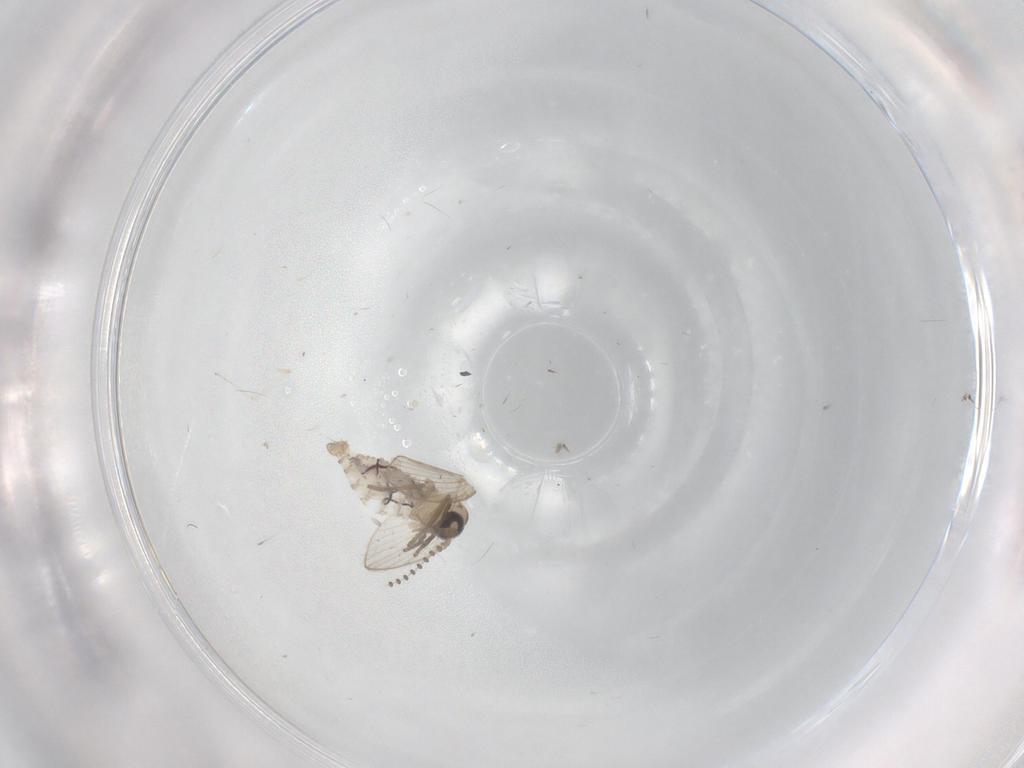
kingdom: Animalia
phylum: Arthropoda
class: Insecta
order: Diptera
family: Psychodidae
